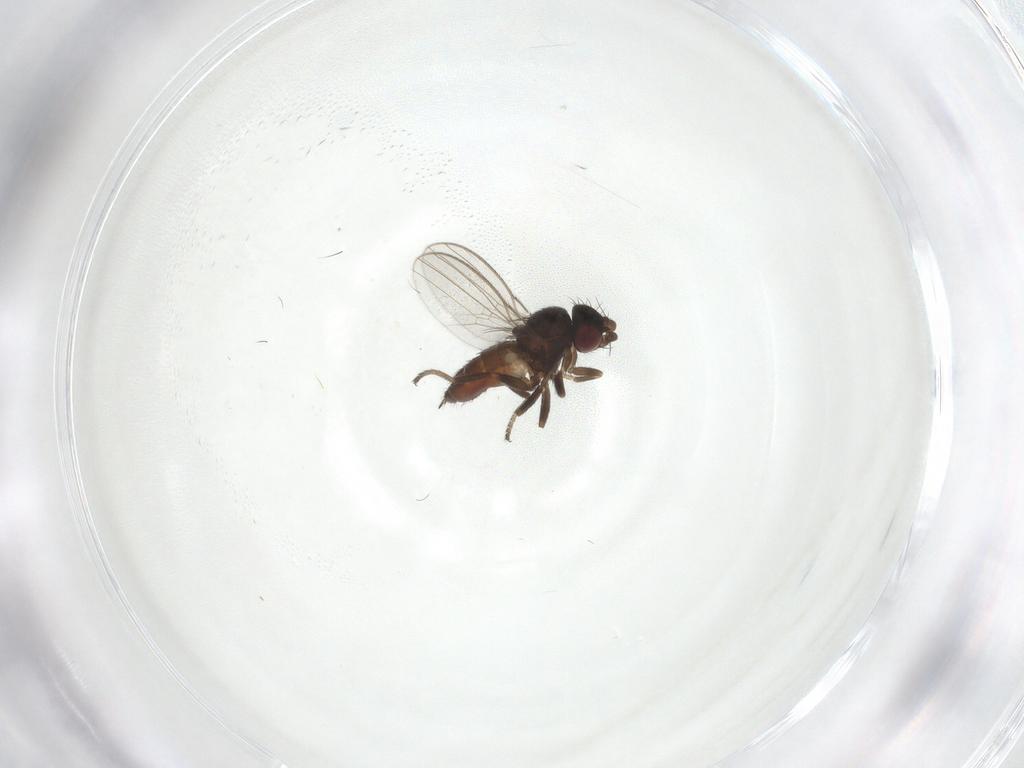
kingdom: Animalia
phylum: Arthropoda
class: Insecta
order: Diptera
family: Milichiidae
